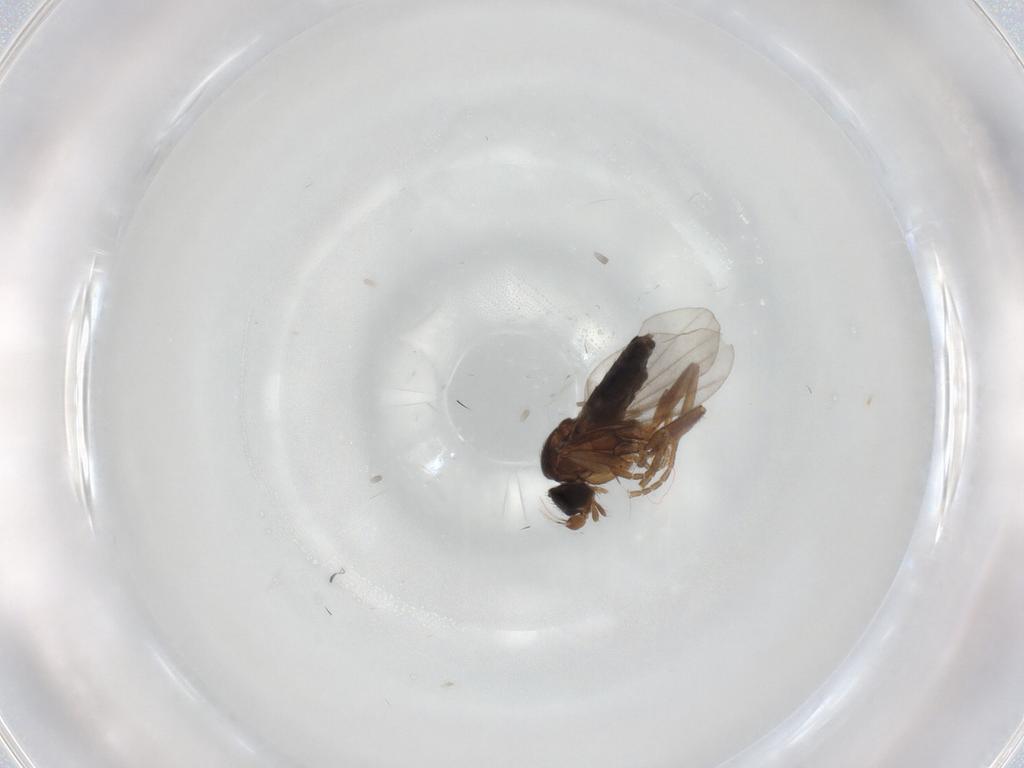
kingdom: Animalia
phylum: Arthropoda
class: Insecta
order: Diptera
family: Phoridae
